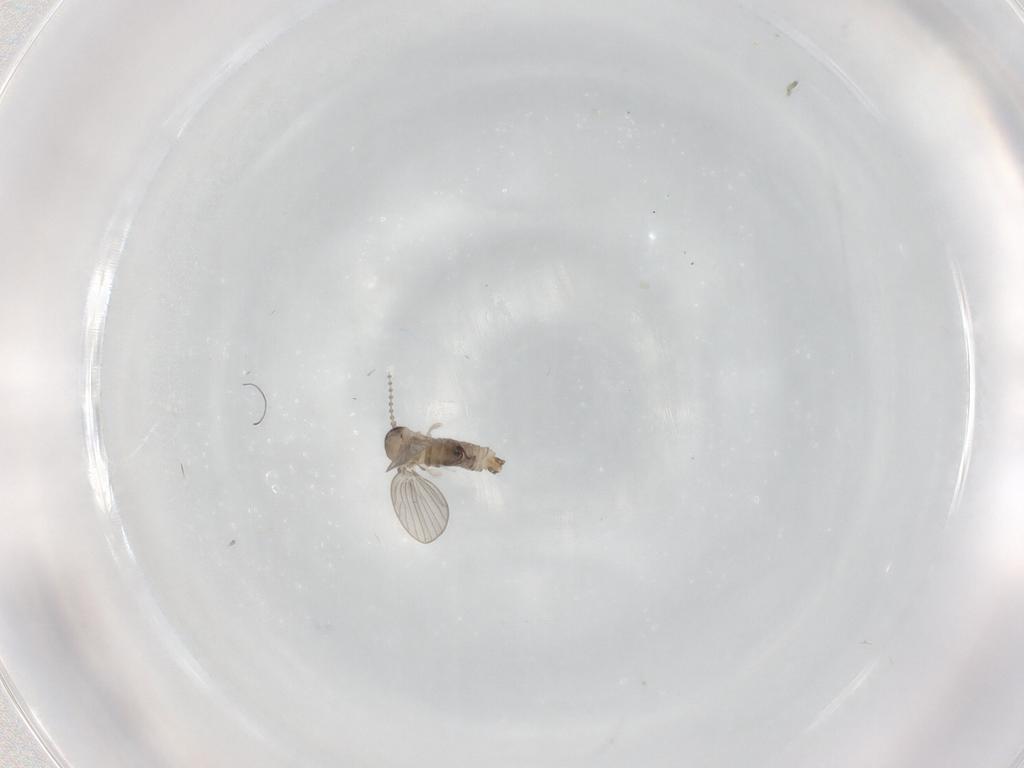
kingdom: Animalia
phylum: Arthropoda
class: Insecta
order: Diptera
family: Psychodidae
